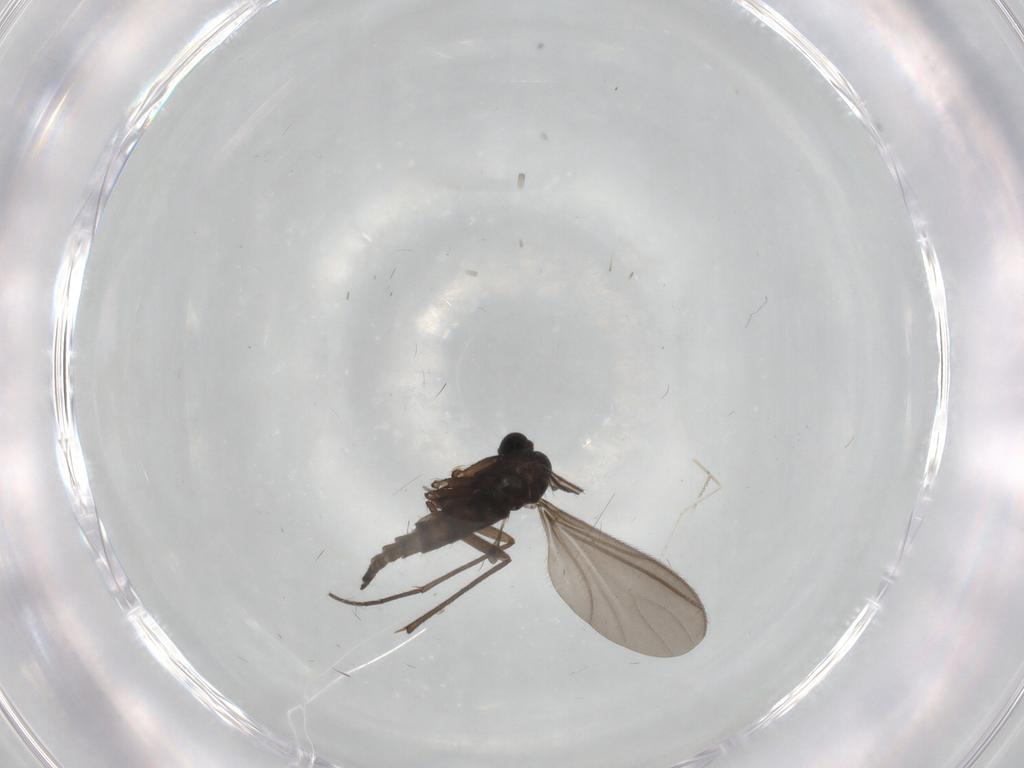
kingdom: Animalia
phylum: Arthropoda
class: Insecta
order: Diptera
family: Sciaridae
